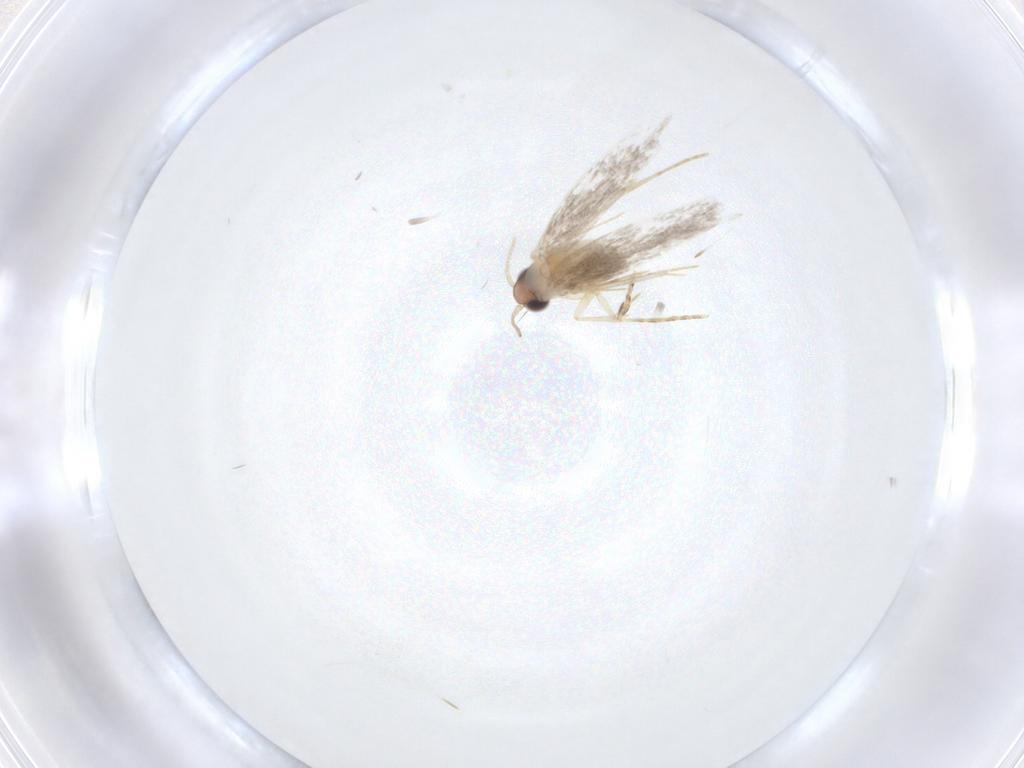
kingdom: Animalia
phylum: Arthropoda
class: Insecta
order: Lepidoptera
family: Tineidae
